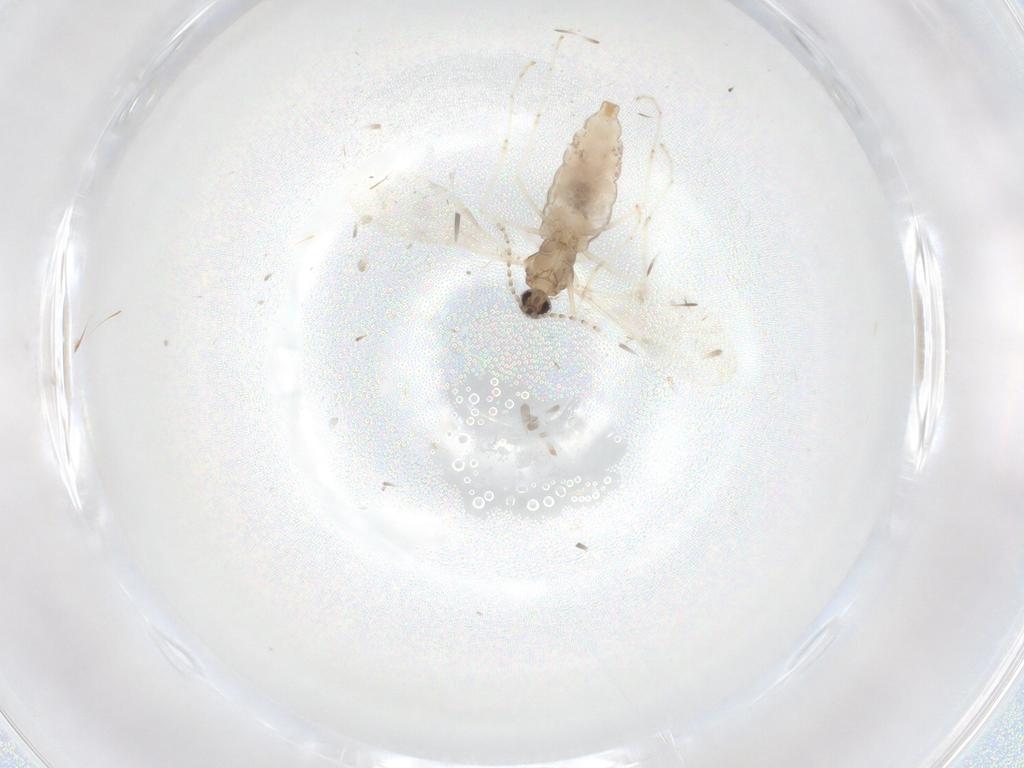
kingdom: Animalia
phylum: Arthropoda
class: Insecta
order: Diptera
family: Cecidomyiidae
